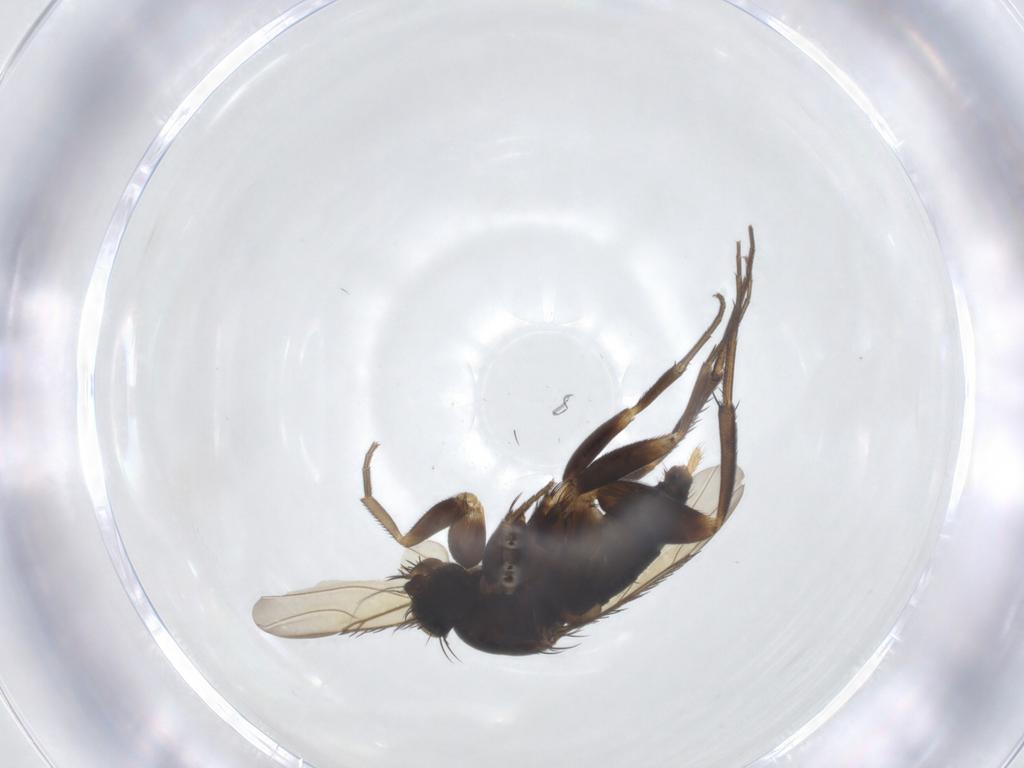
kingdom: Animalia
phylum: Arthropoda
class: Insecta
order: Diptera
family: Phoridae
